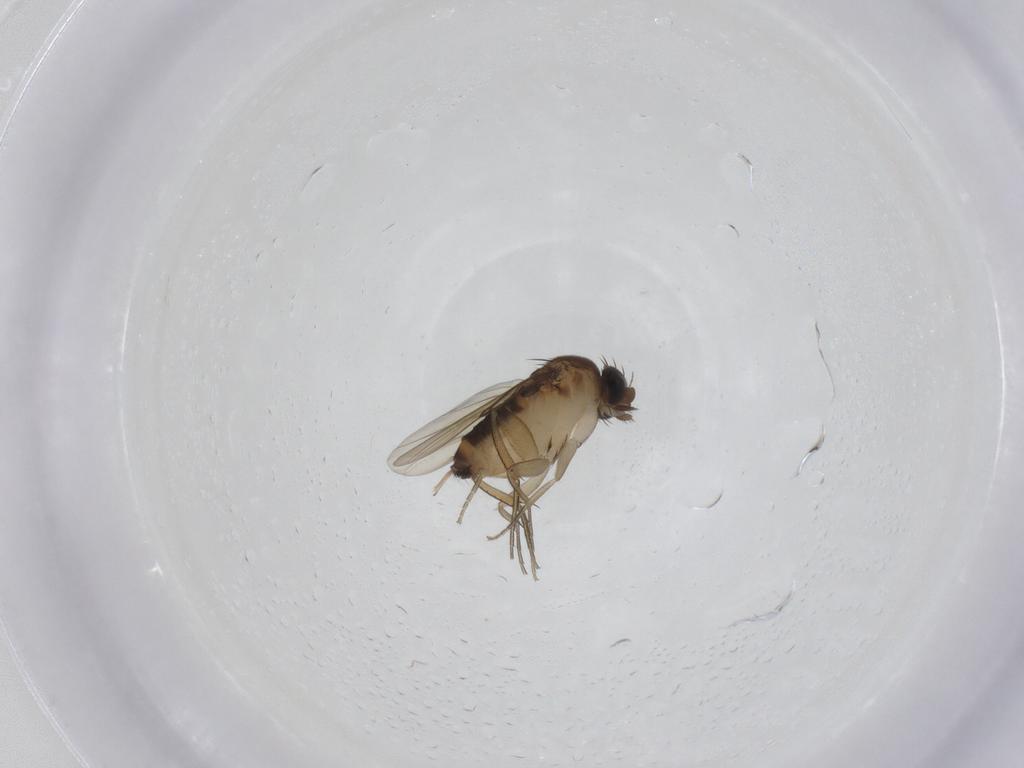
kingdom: Animalia
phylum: Arthropoda
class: Insecta
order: Diptera
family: Phoridae
